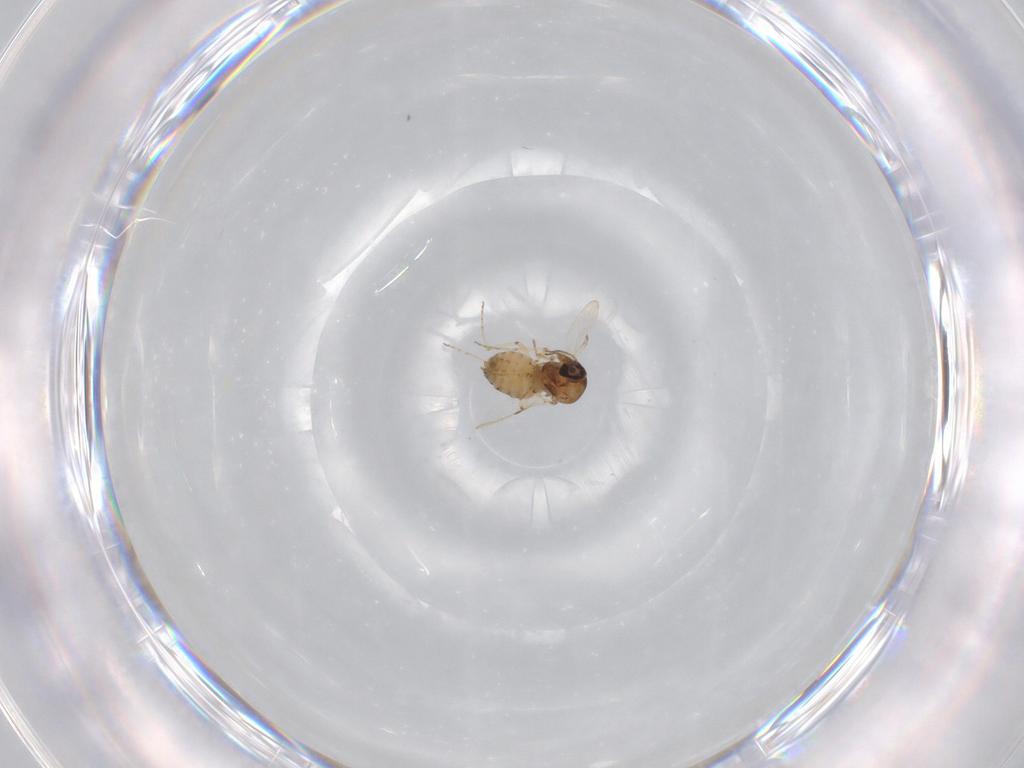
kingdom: Animalia
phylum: Arthropoda
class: Insecta
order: Diptera
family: Ceratopogonidae
